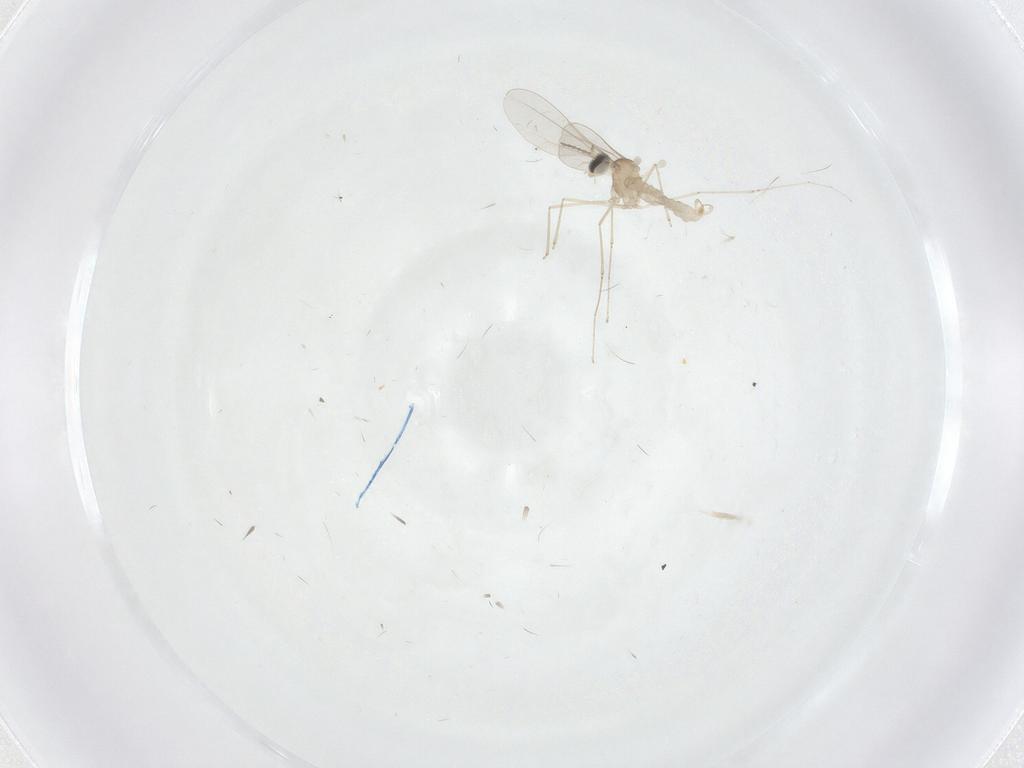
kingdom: Animalia
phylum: Arthropoda
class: Insecta
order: Diptera
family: Cecidomyiidae
